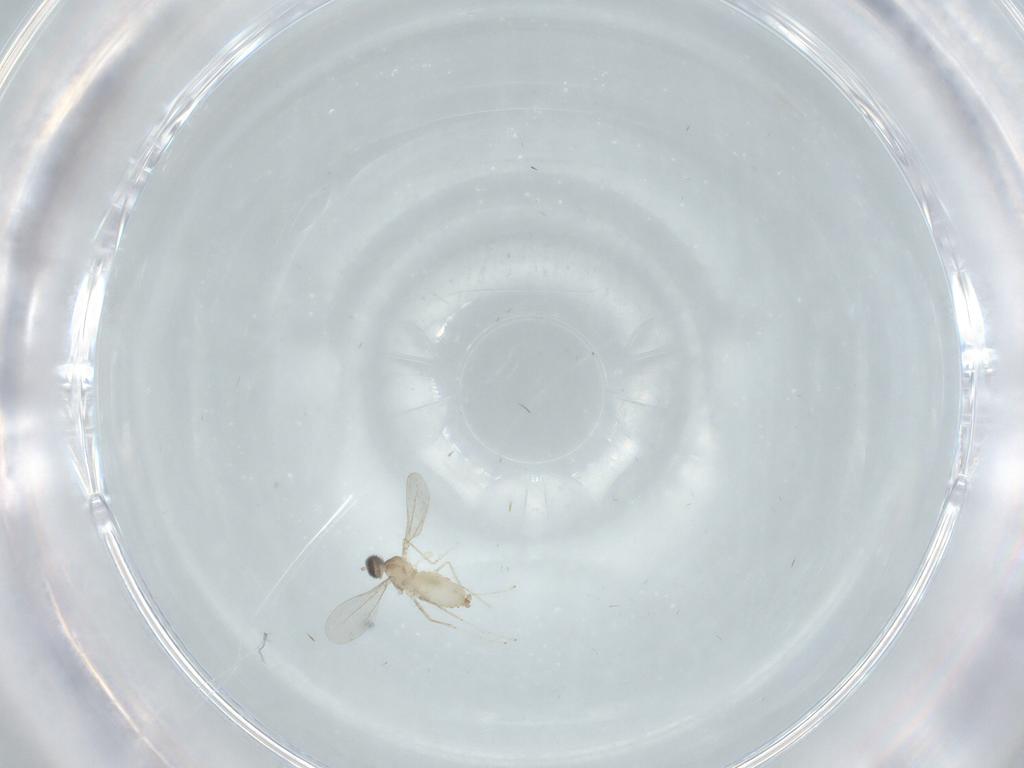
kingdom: Animalia
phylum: Arthropoda
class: Insecta
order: Diptera
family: Cecidomyiidae
